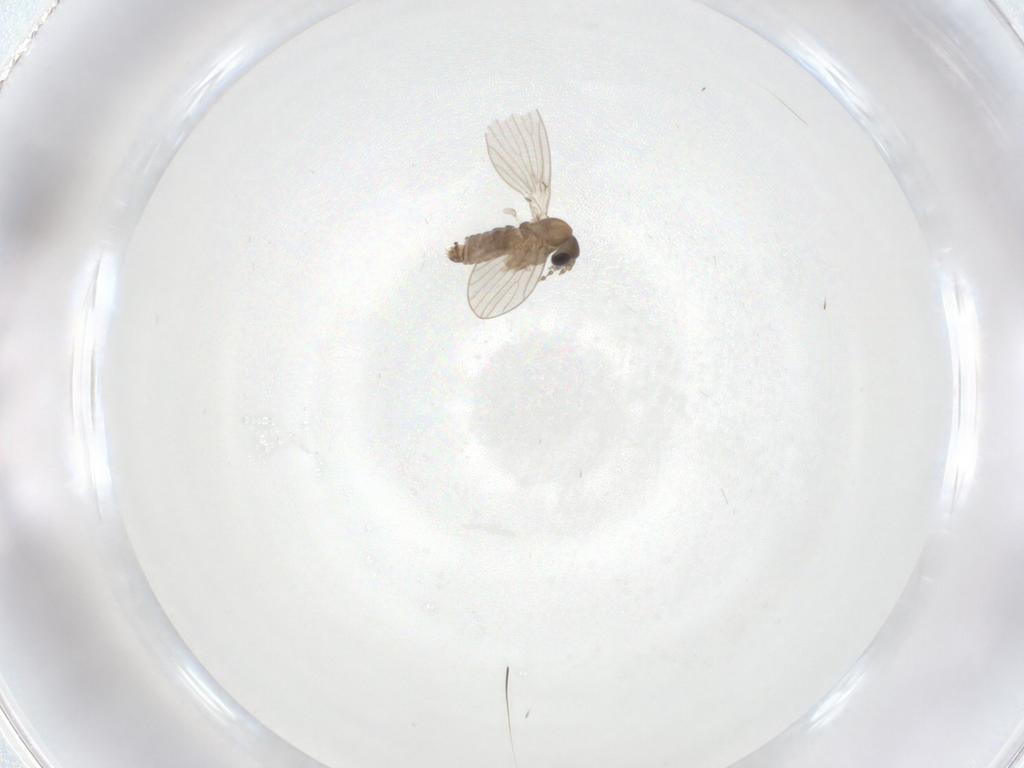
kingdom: Animalia
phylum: Arthropoda
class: Insecta
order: Diptera
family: Psychodidae
